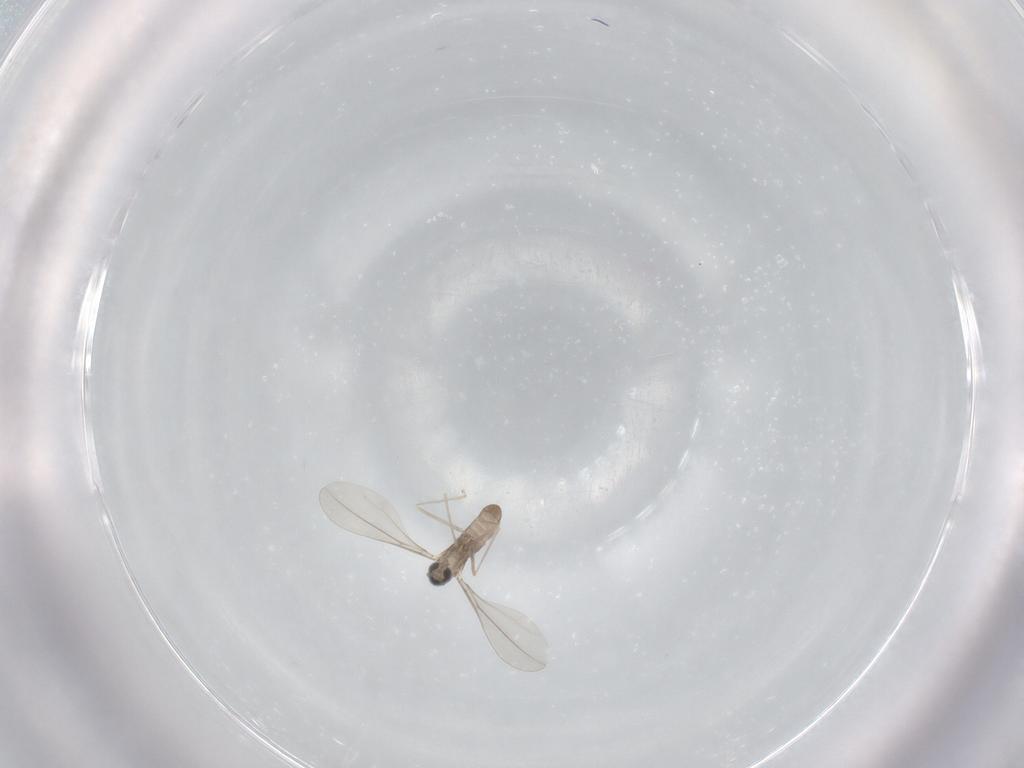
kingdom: Animalia
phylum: Arthropoda
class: Insecta
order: Diptera
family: Cecidomyiidae
